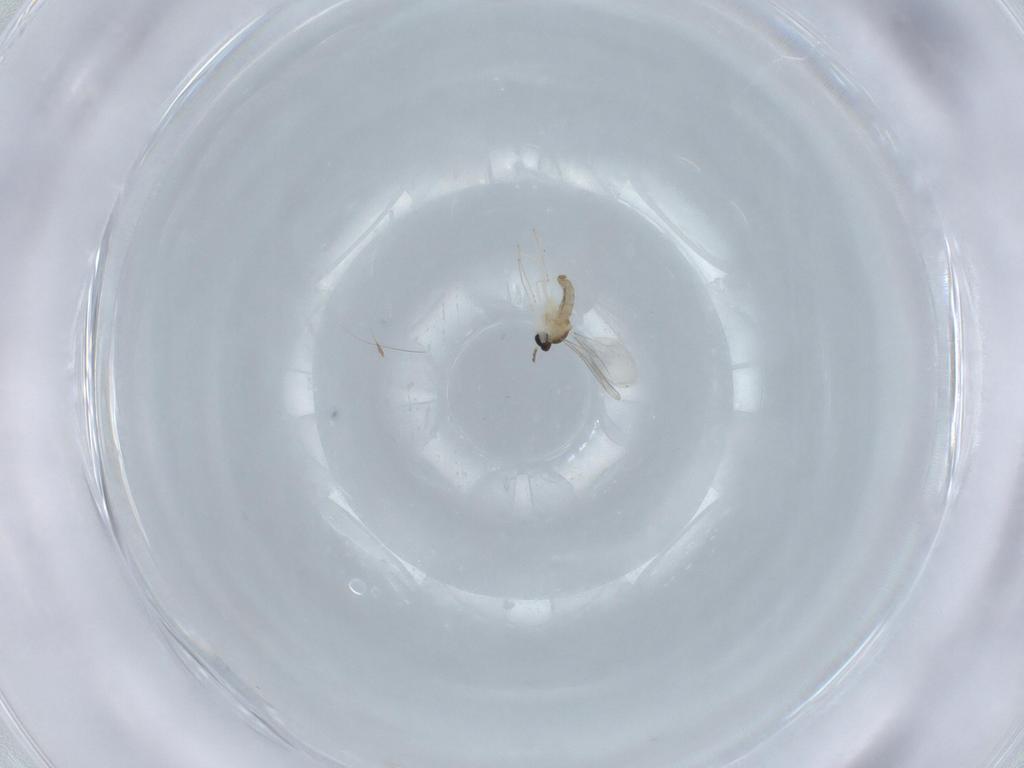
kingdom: Animalia
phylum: Arthropoda
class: Insecta
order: Diptera
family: Cecidomyiidae
